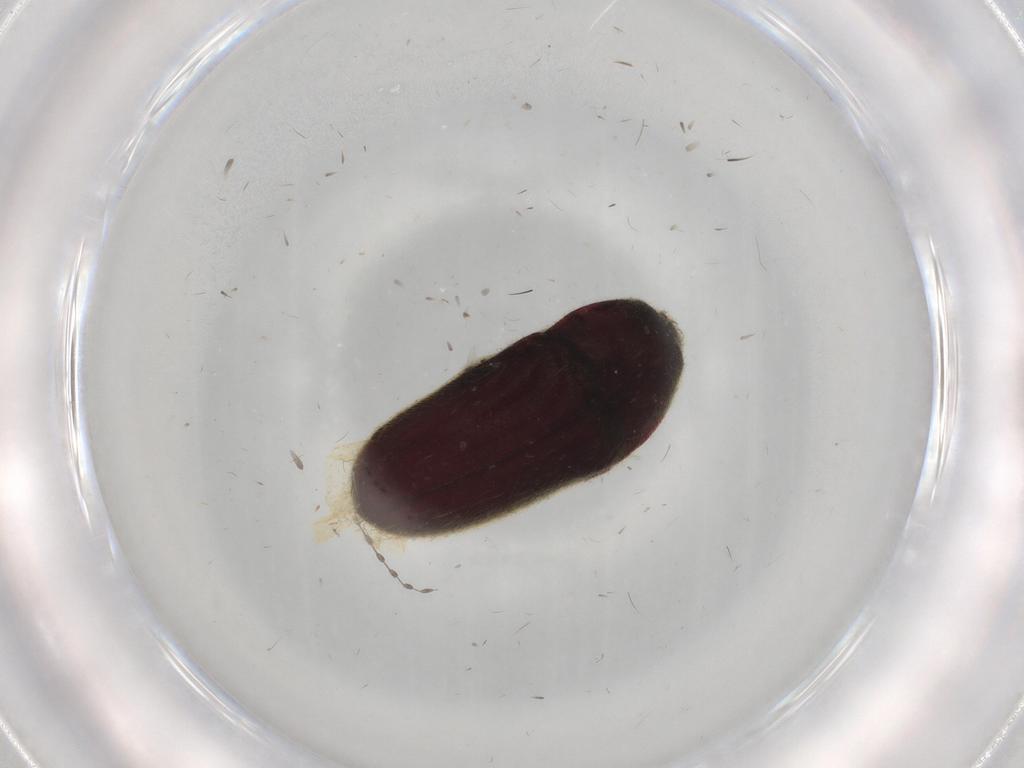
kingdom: Animalia
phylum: Arthropoda
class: Insecta
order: Coleoptera
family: Throscidae
